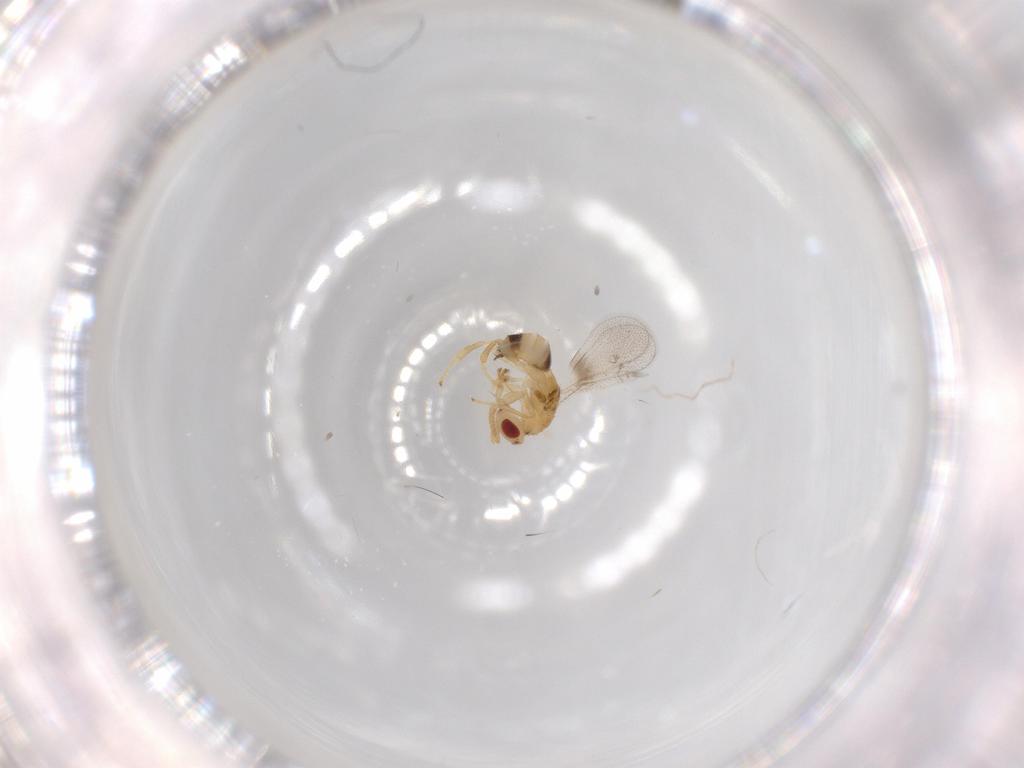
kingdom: Animalia
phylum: Arthropoda
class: Insecta
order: Hymenoptera
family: Torymidae
